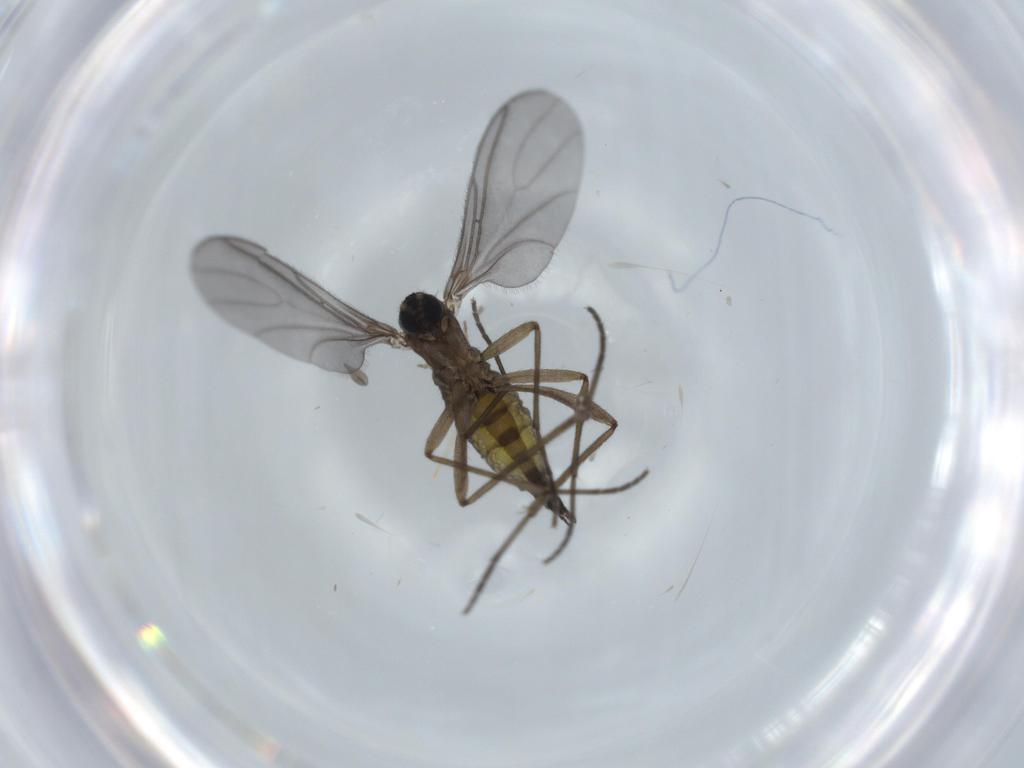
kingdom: Animalia
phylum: Arthropoda
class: Insecta
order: Diptera
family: Sciaridae
